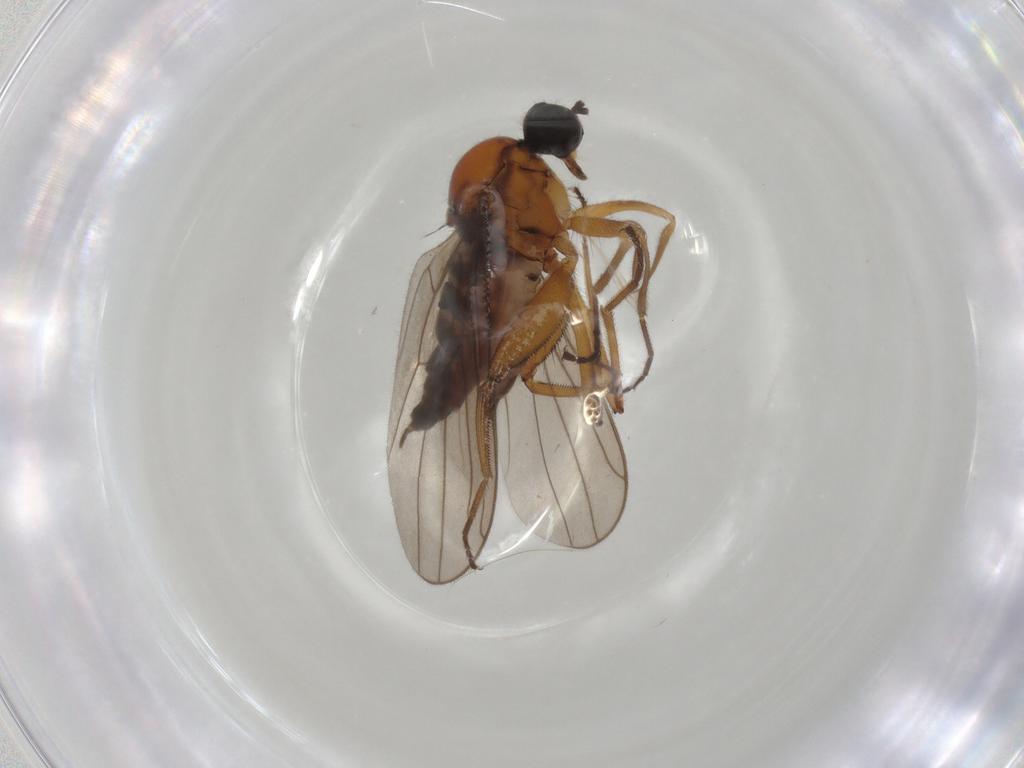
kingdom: Animalia
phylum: Arthropoda
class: Insecta
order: Diptera
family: Hybotidae
